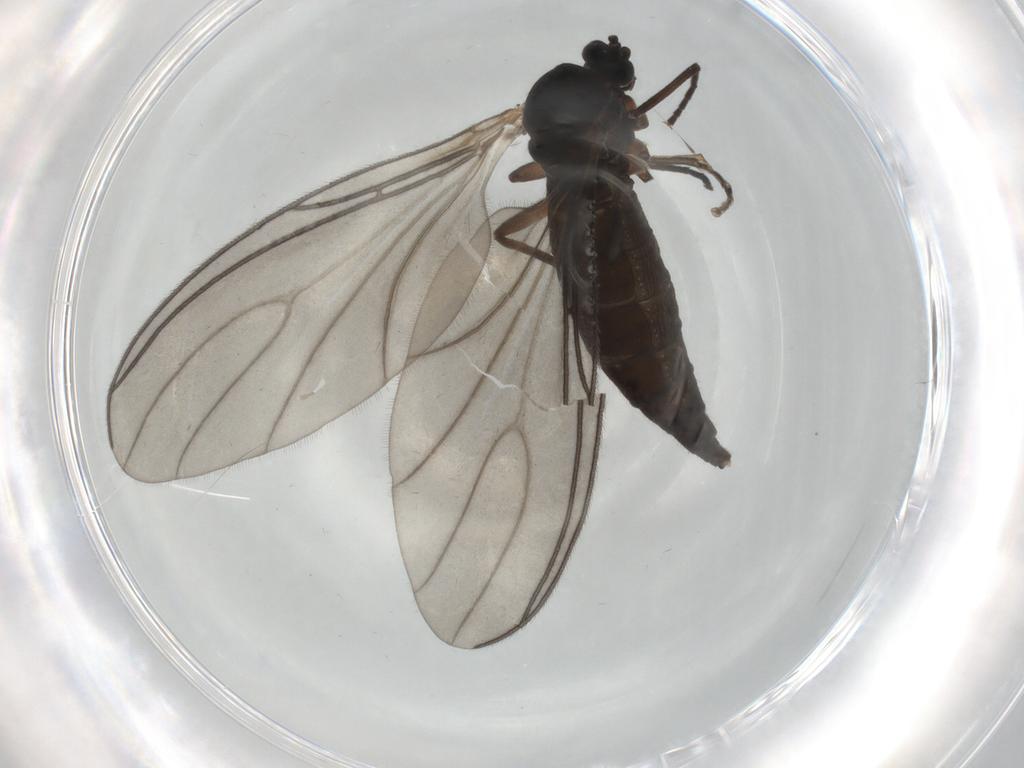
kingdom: Animalia
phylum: Arthropoda
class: Insecta
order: Diptera
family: Sciaridae
